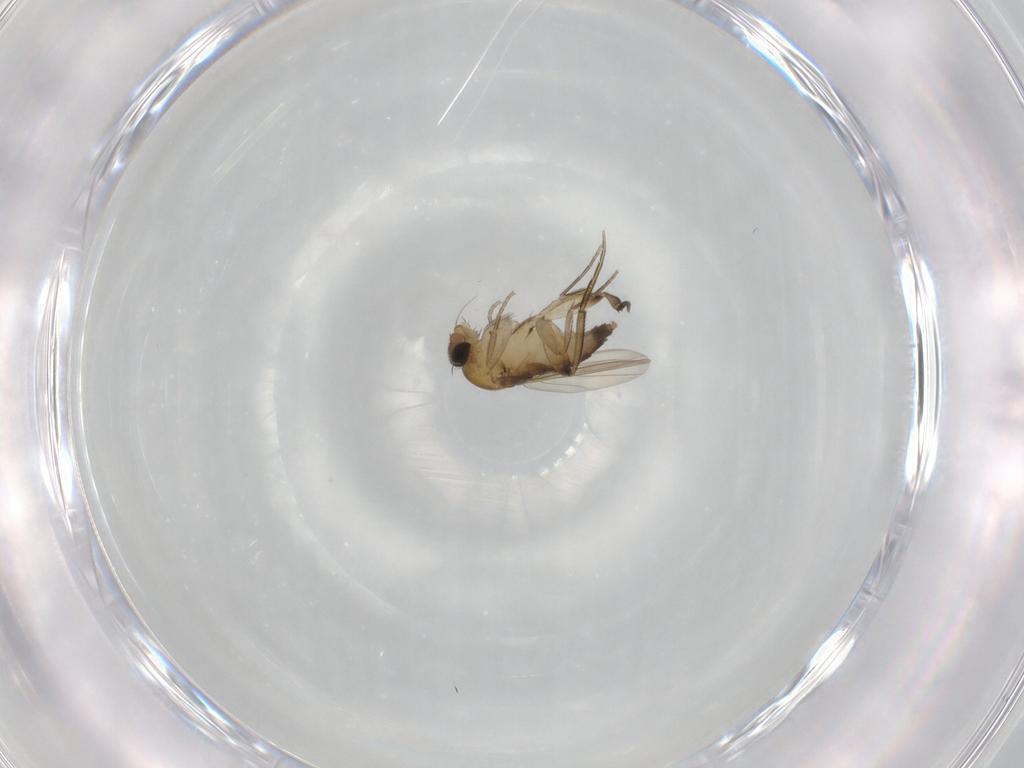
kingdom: Animalia
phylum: Arthropoda
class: Insecta
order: Diptera
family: Phoridae
